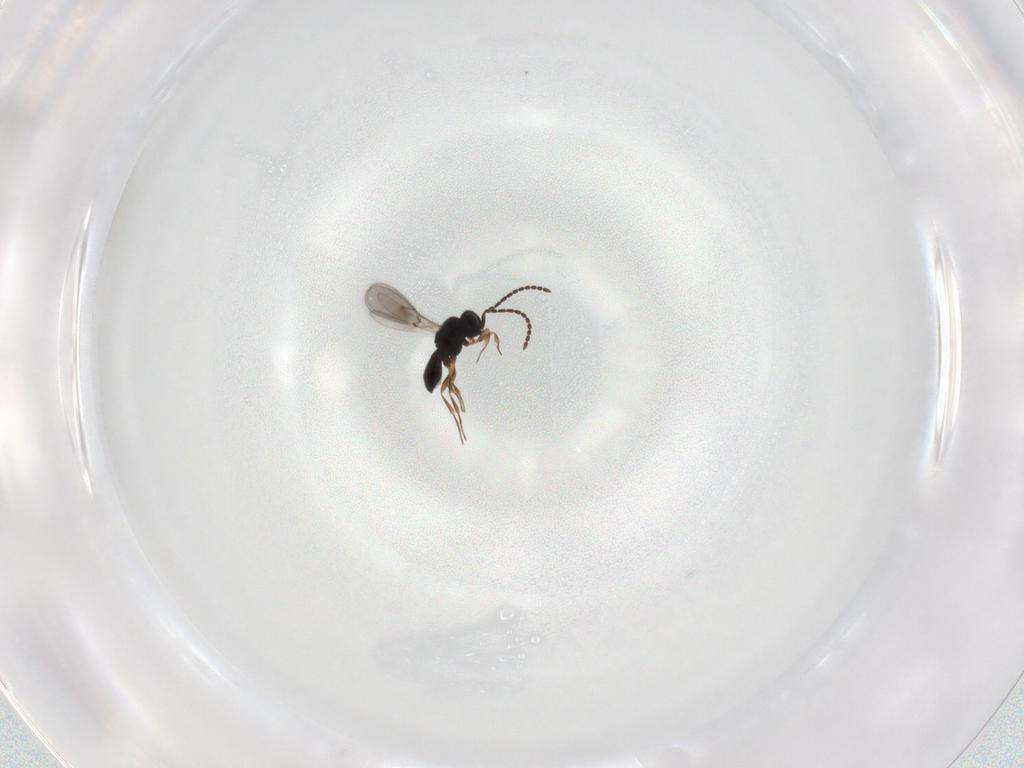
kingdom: Animalia
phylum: Arthropoda
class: Insecta
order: Hymenoptera
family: Scelionidae
